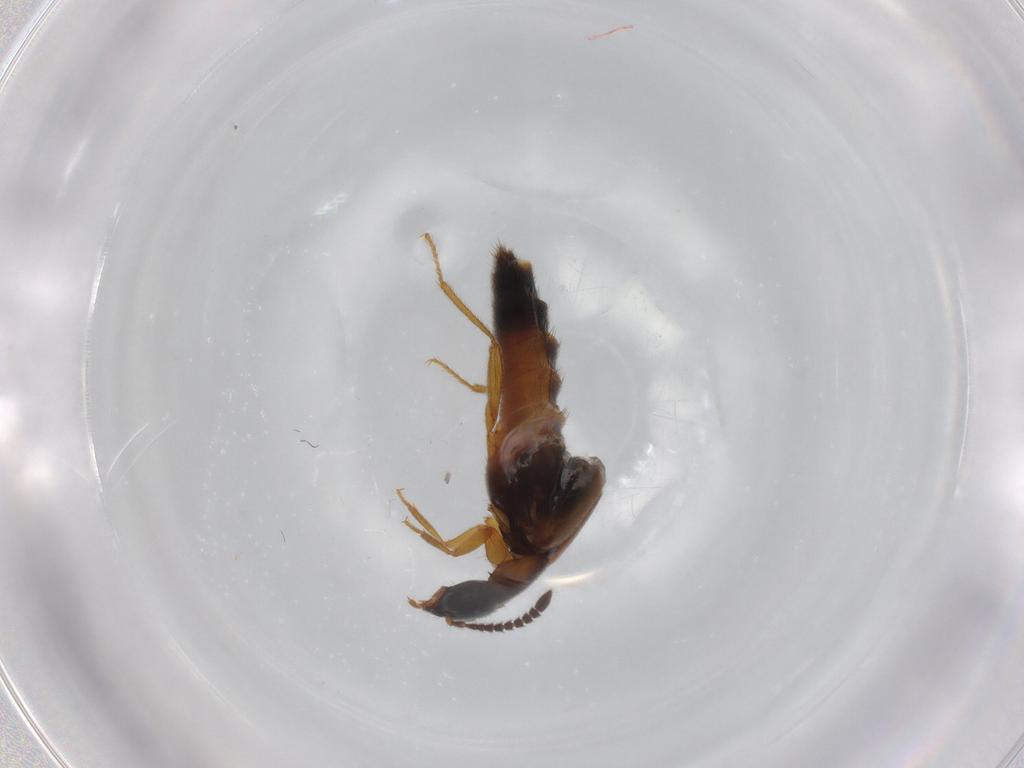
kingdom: Animalia
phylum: Arthropoda
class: Insecta
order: Coleoptera
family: Staphylinidae
